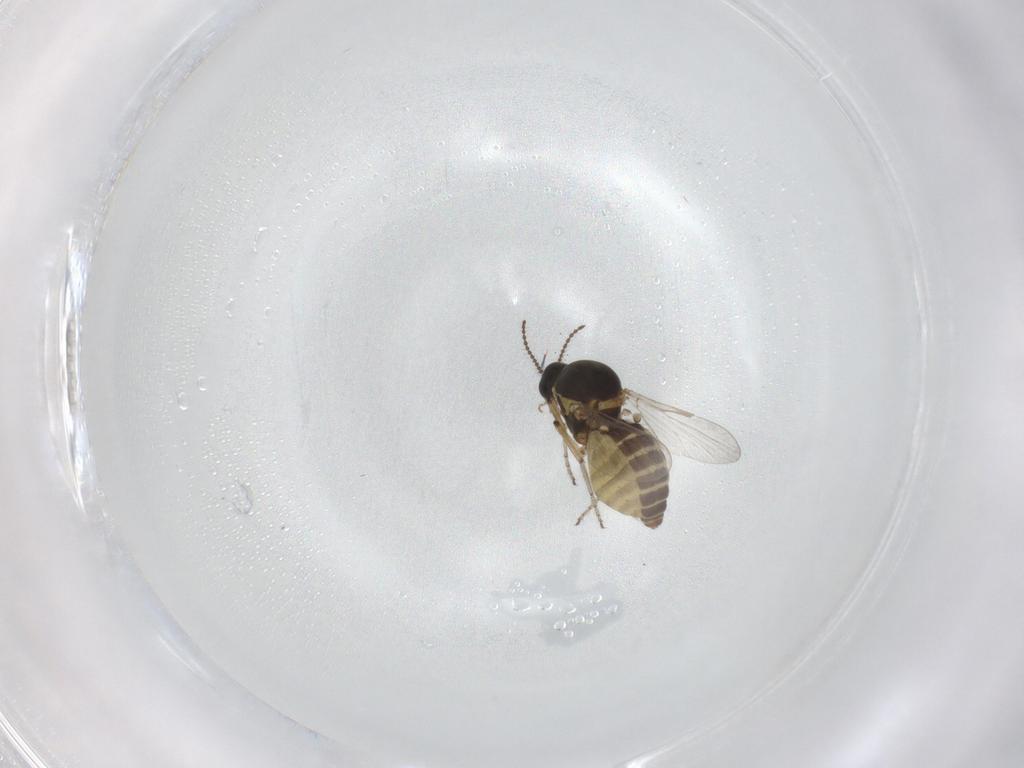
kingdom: Animalia
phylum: Arthropoda
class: Insecta
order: Diptera
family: Ceratopogonidae
